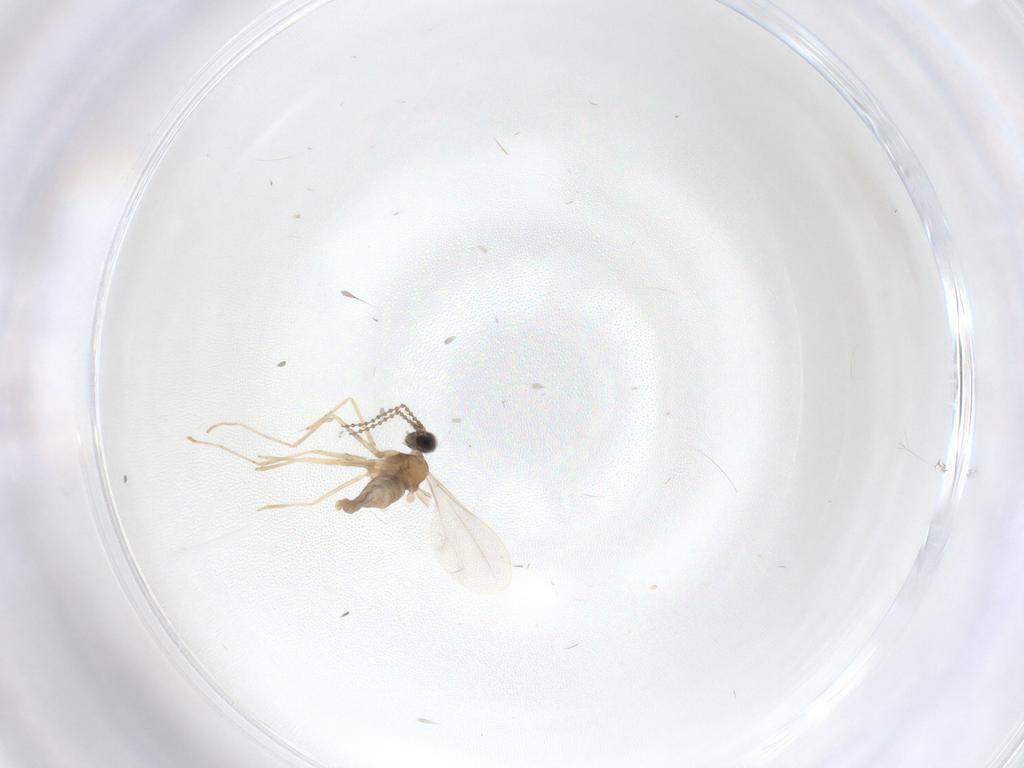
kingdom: Animalia
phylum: Arthropoda
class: Insecta
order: Diptera
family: Cecidomyiidae
